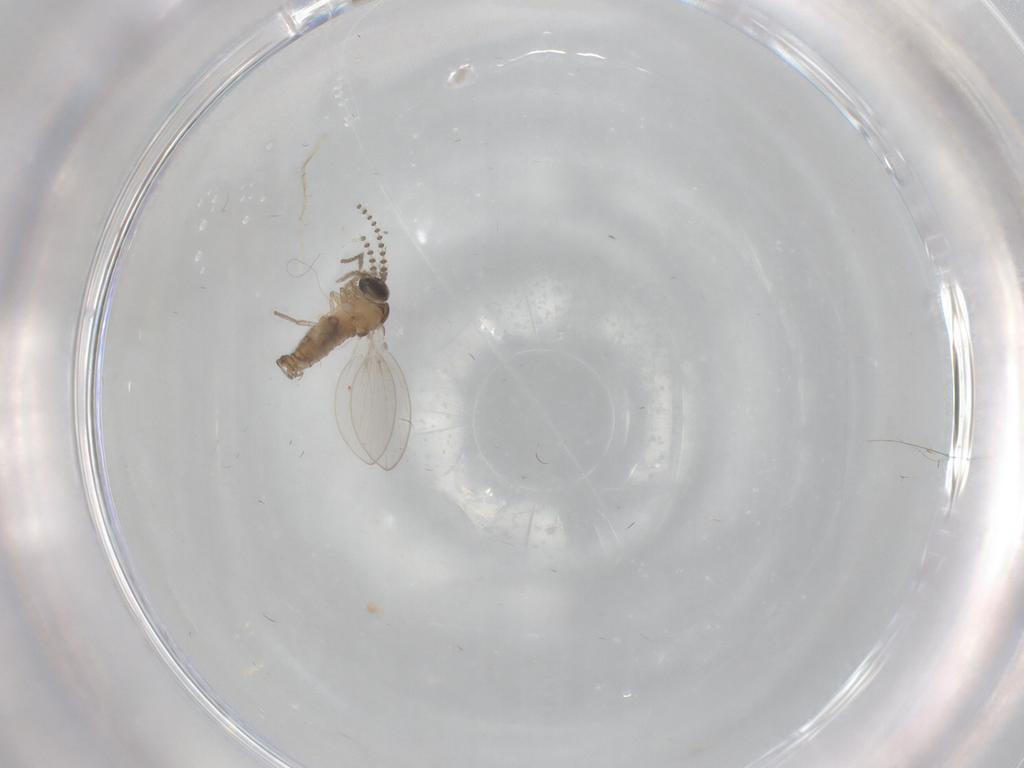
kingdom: Animalia
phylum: Arthropoda
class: Insecta
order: Diptera
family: Psychodidae
